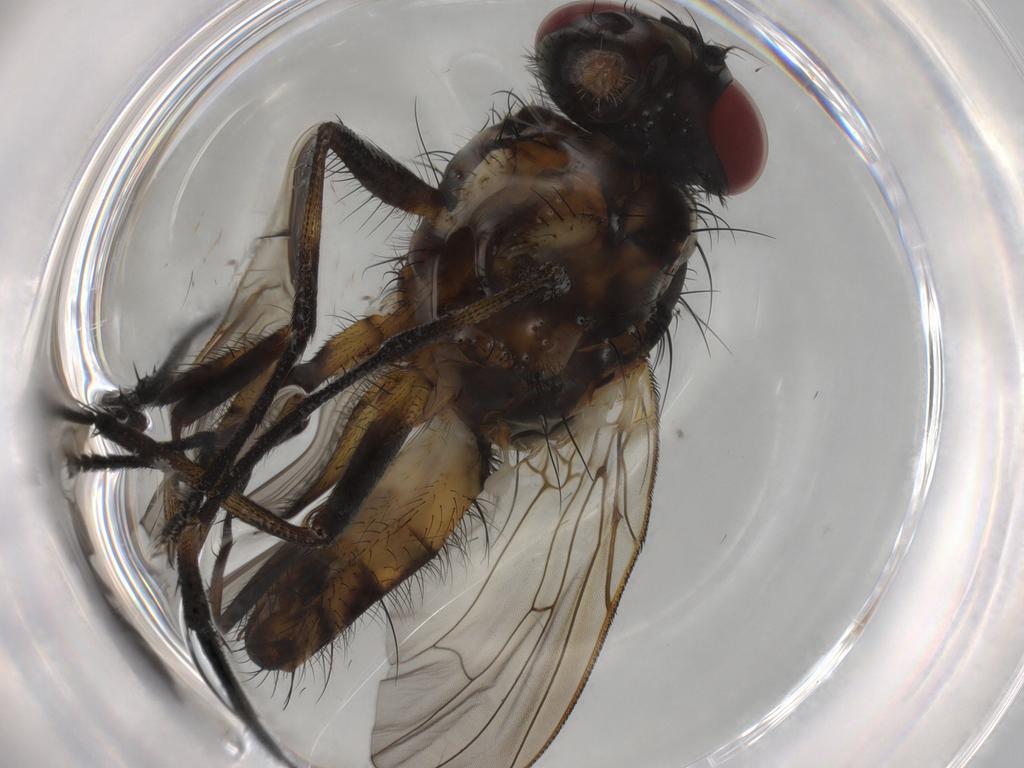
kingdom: Animalia
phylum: Arthropoda
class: Insecta
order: Diptera
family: Anthomyiidae
